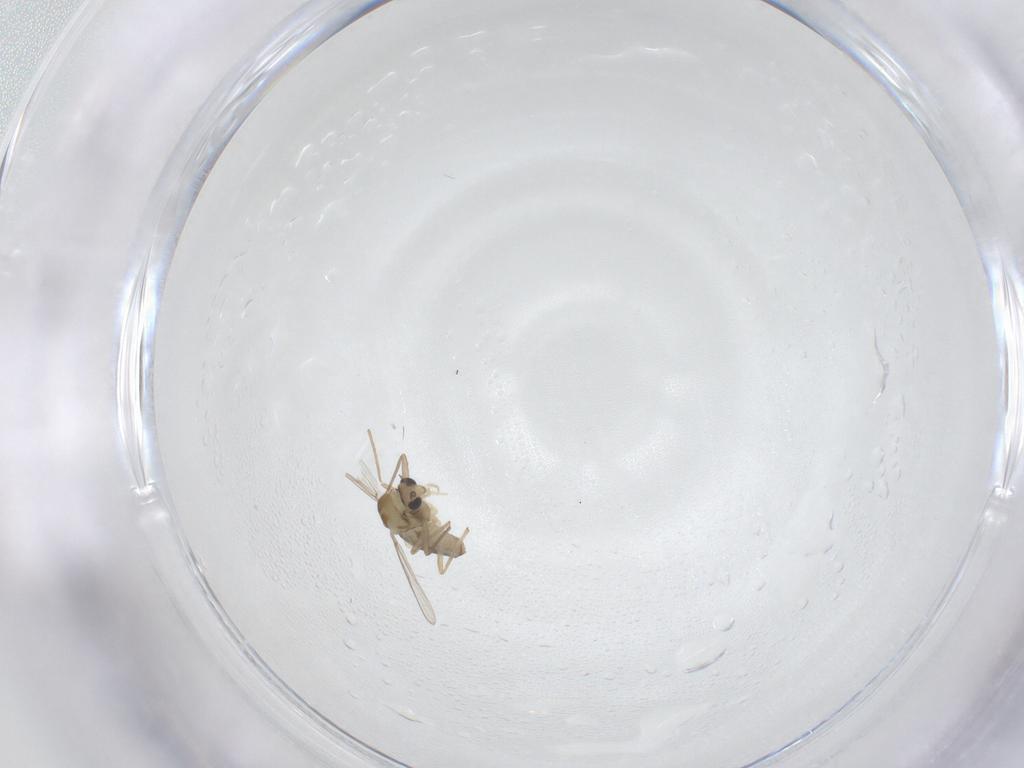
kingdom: Animalia
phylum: Arthropoda
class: Insecta
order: Diptera
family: Chironomidae
